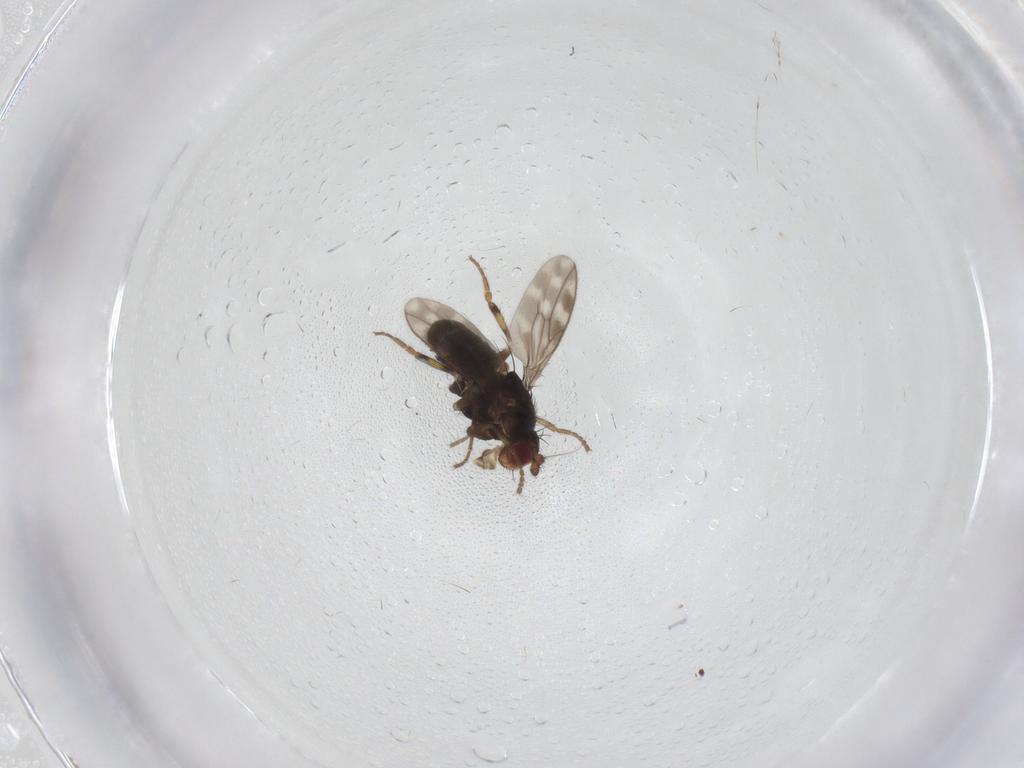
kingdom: Animalia
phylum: Arthropoda
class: Insecta
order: Diptera
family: Sphaeroceridae
